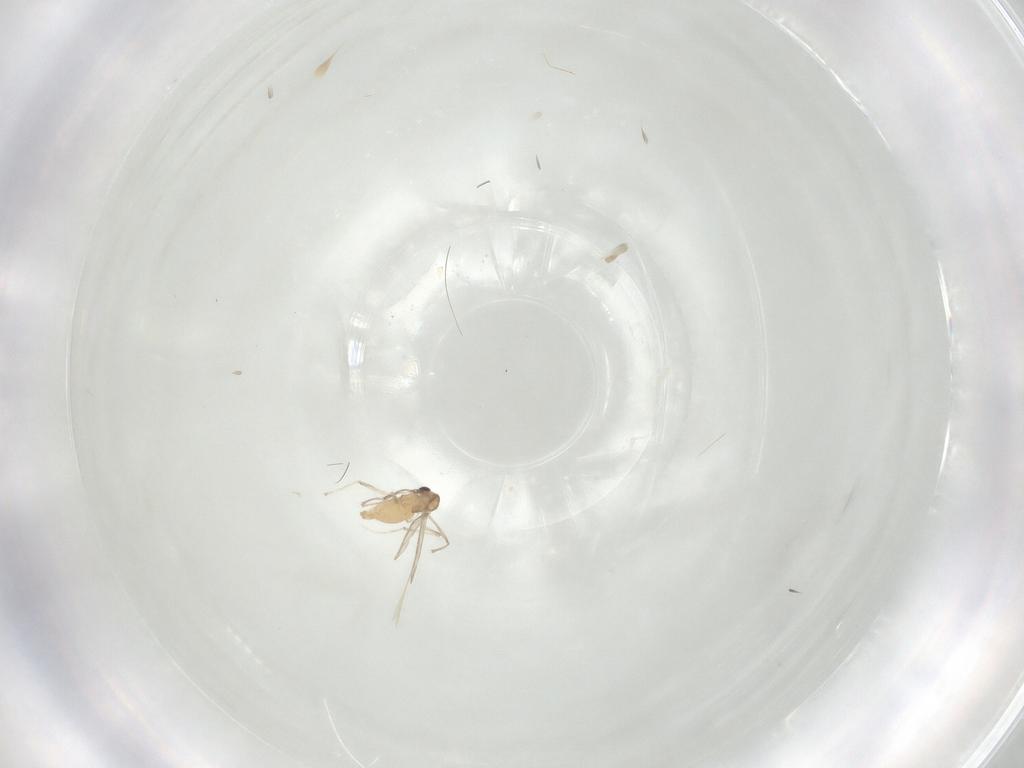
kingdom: Animalia
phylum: Arthropoda
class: Insecta
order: Diptera
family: Chironomidae
